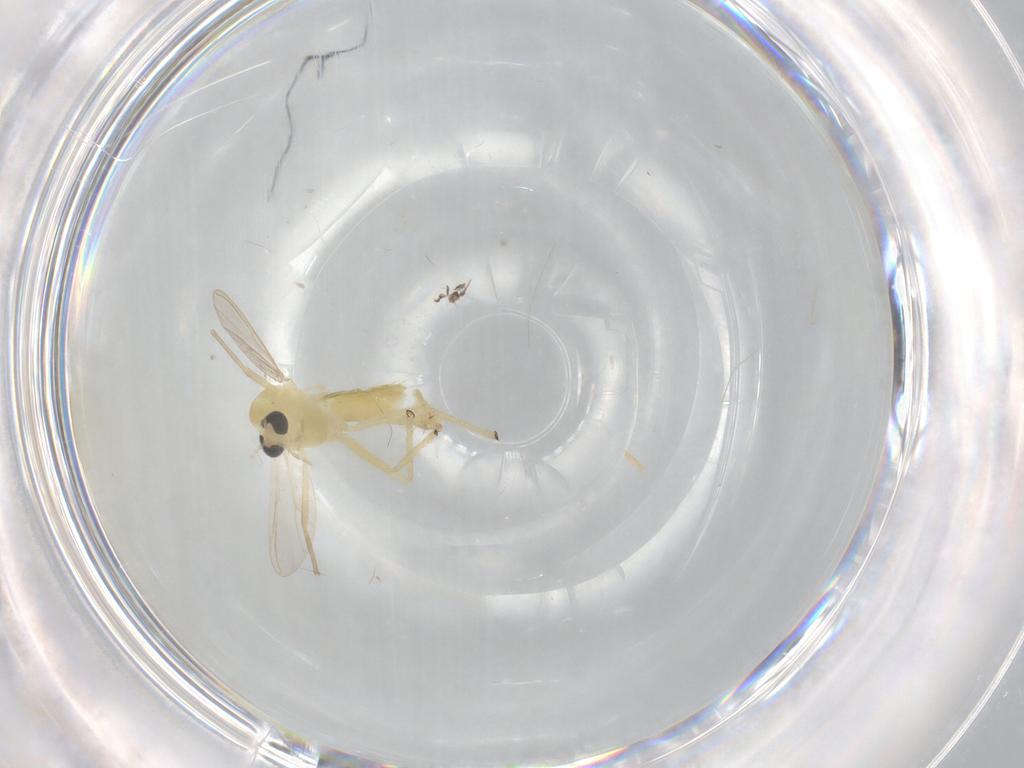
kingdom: Animalia
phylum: Arthropoda
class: Insecta
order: Diptera
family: Chironomidae
